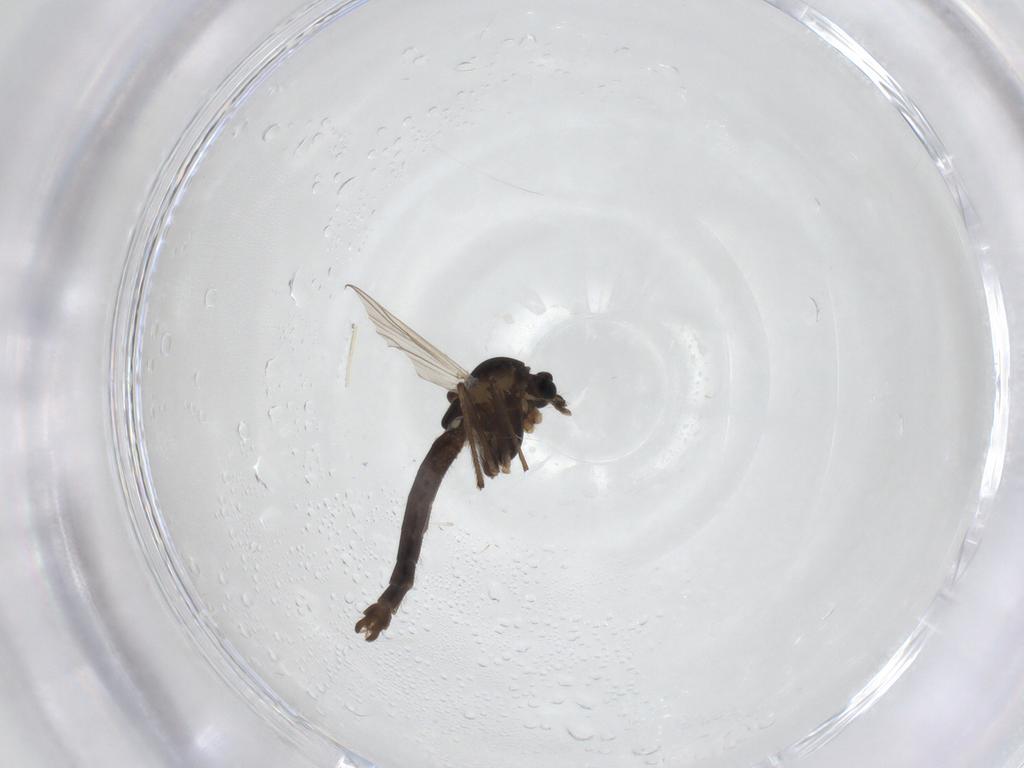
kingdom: Animalia
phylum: Arthropoda
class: Insecta
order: Diptera
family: Chironomidae
